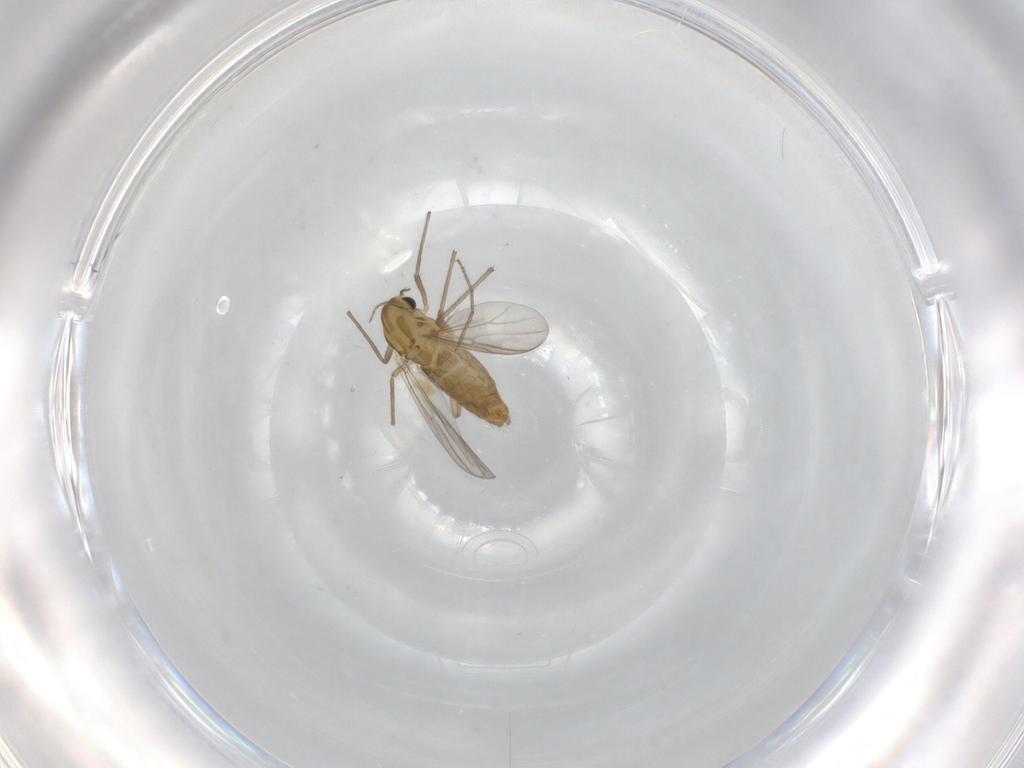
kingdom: Animalia
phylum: Arthropoda
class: Insecta
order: Diptera
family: Chironomidae
